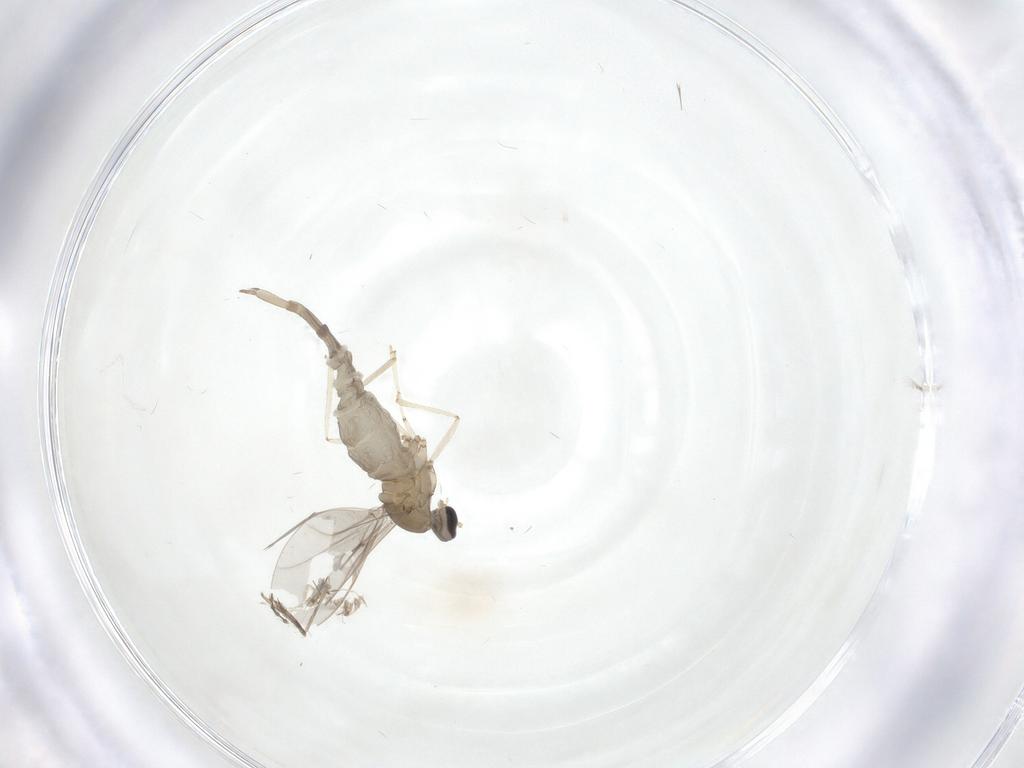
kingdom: Animalia
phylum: Arthropoda
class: Insecta
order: Diptera
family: Cecidomyiidae
